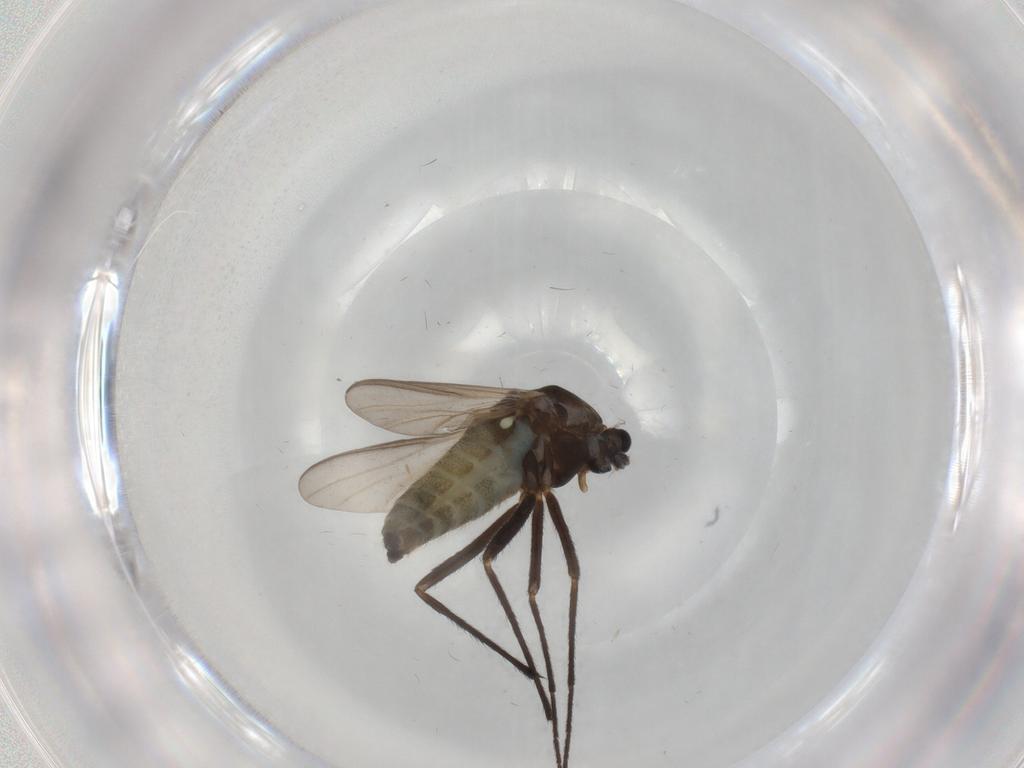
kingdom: Animalia
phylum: Arthropoda
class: Insecta
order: Diptera
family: Chironomidae
